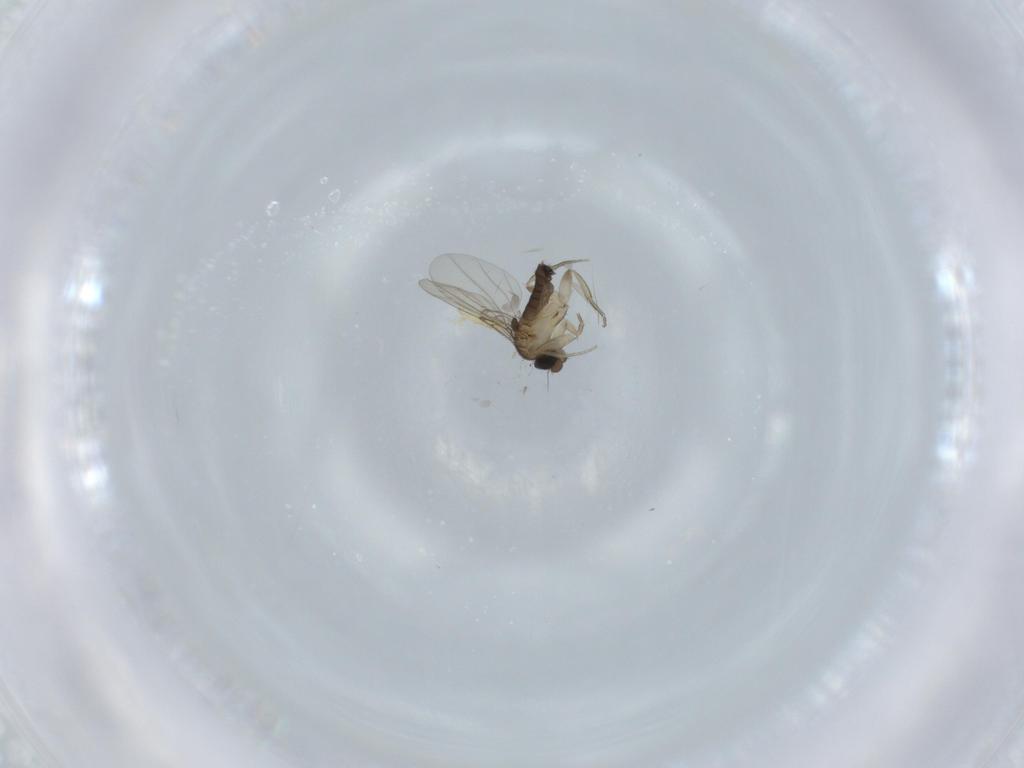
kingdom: Animalia
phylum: Arthropoda
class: Insecta
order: Diptera
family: Phoridae
